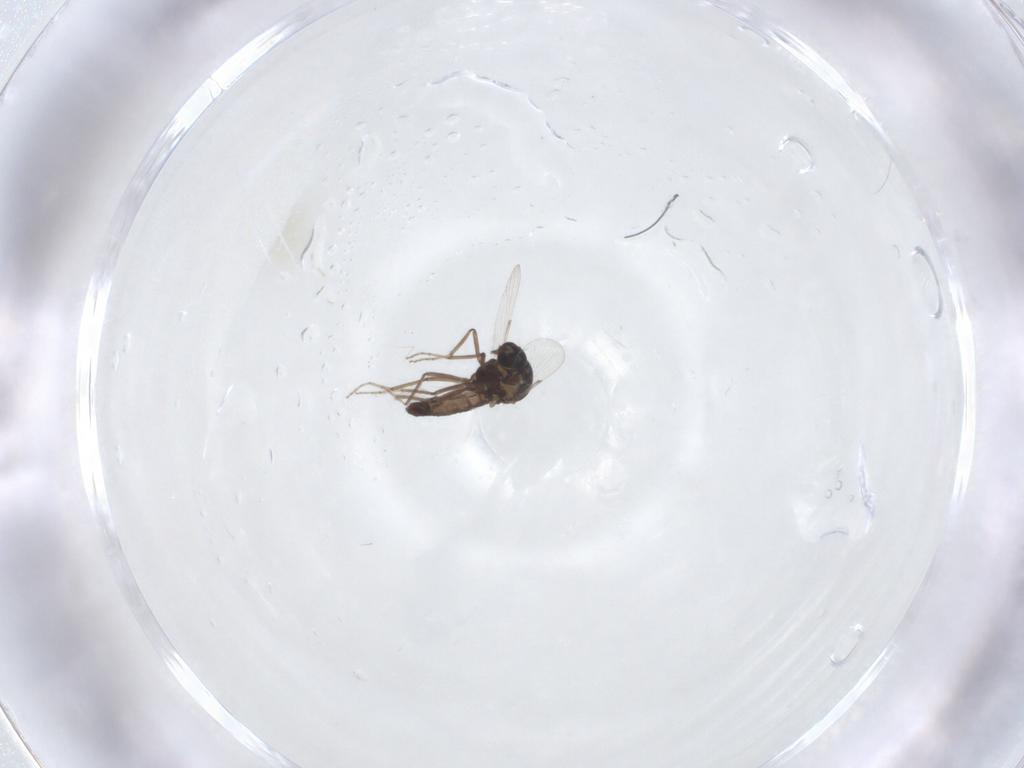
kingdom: Animalia
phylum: Arthropoda
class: Insecta
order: Diptera
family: Ceratopogonidae
